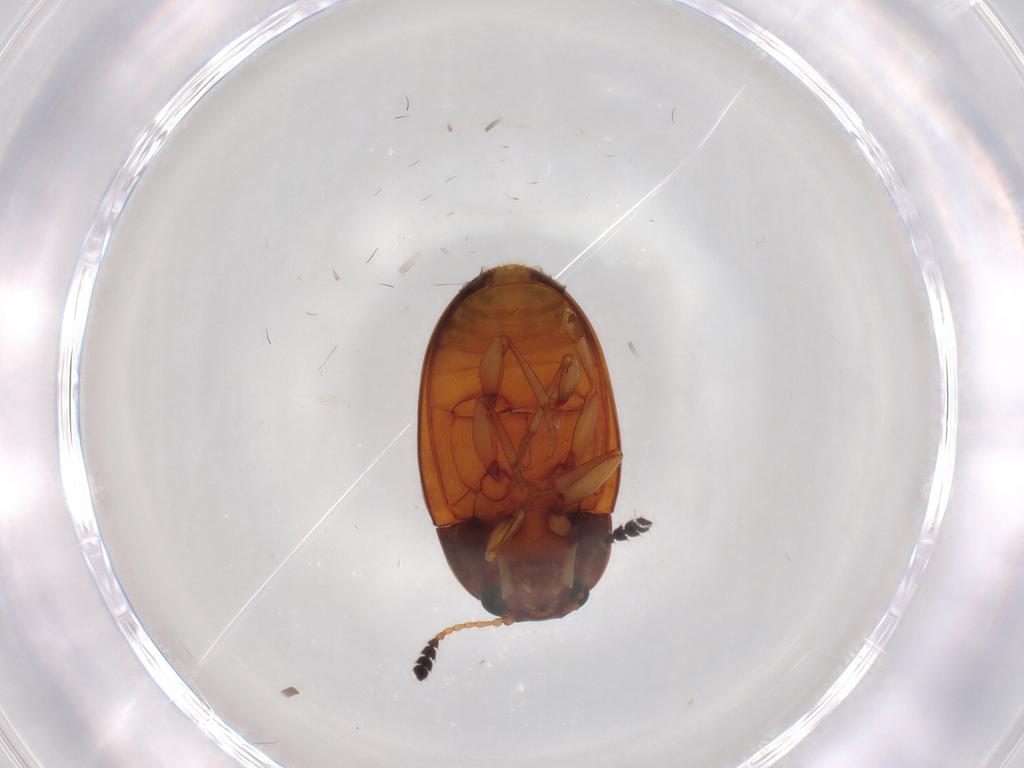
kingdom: Animalia
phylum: Arthropoda
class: Insecta
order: Coleoptera
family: Erotylidae
